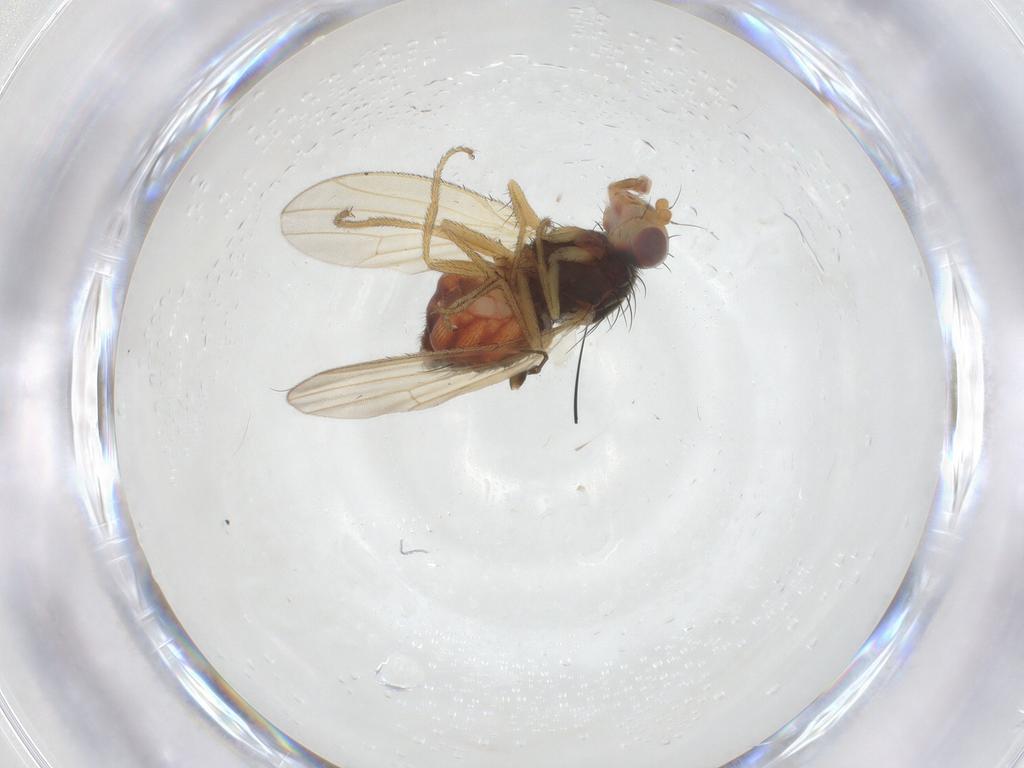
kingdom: Animalia
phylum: Arthropoda
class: Insecta
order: Diptera
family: Heleomyzidae
